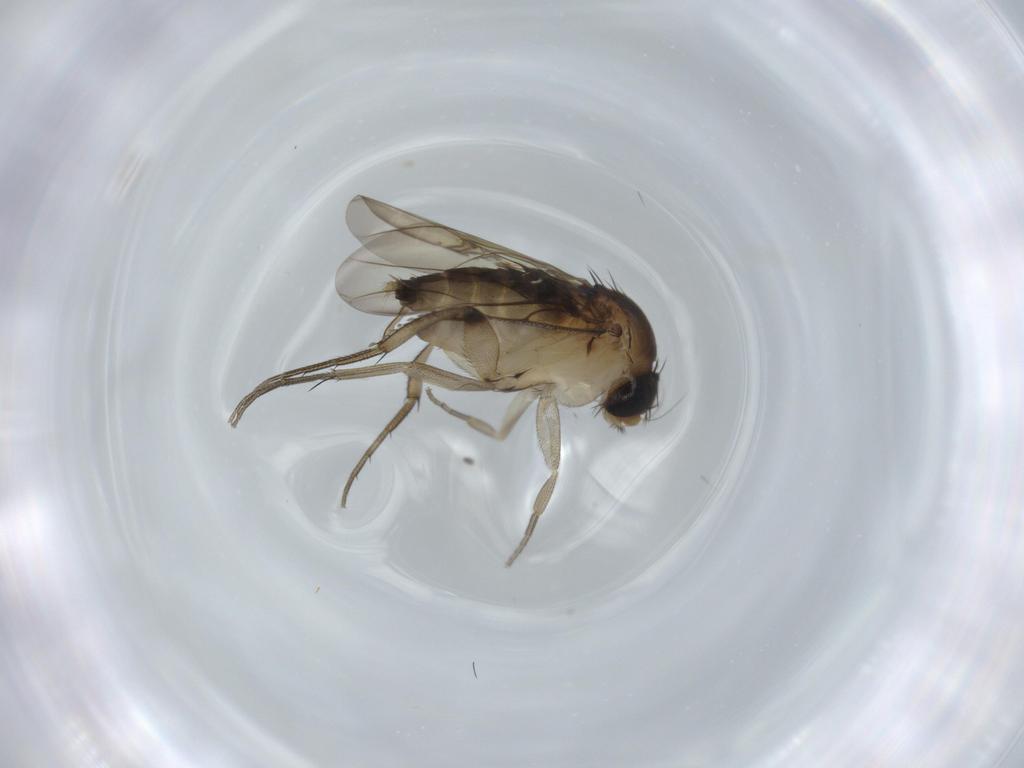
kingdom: Animalia
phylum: Arthropoda
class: Insecta
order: Diptera
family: Phoridae
